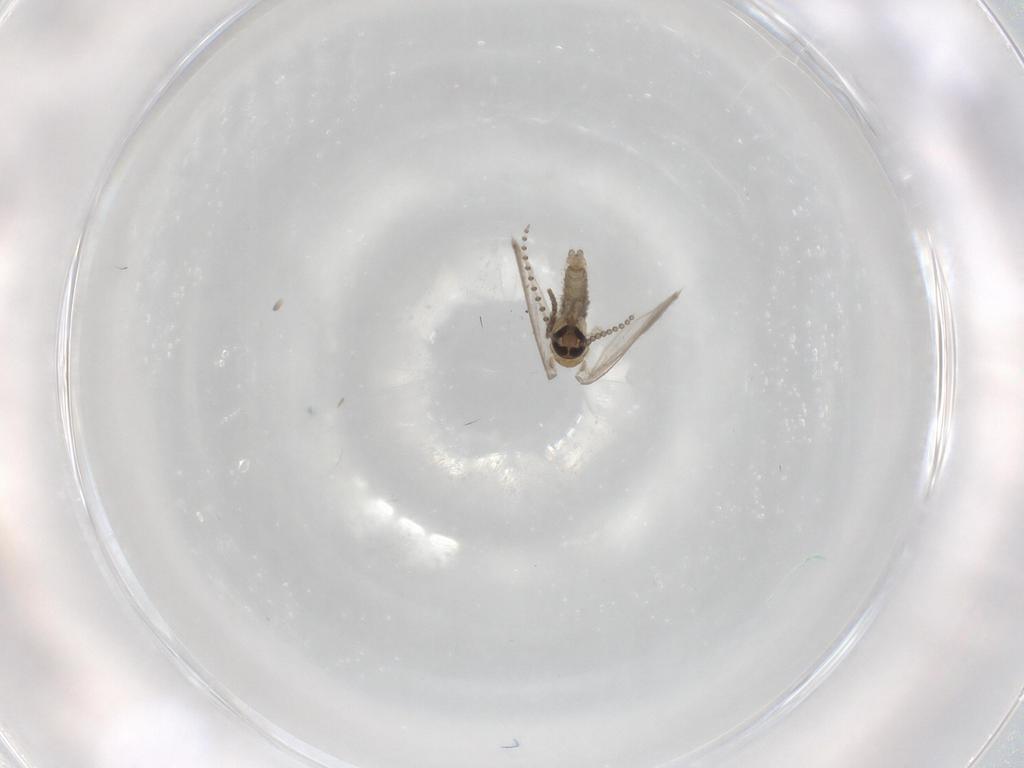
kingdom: Animalia
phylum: Arthropoda
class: Insecta
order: Diptera
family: Psychodidae
